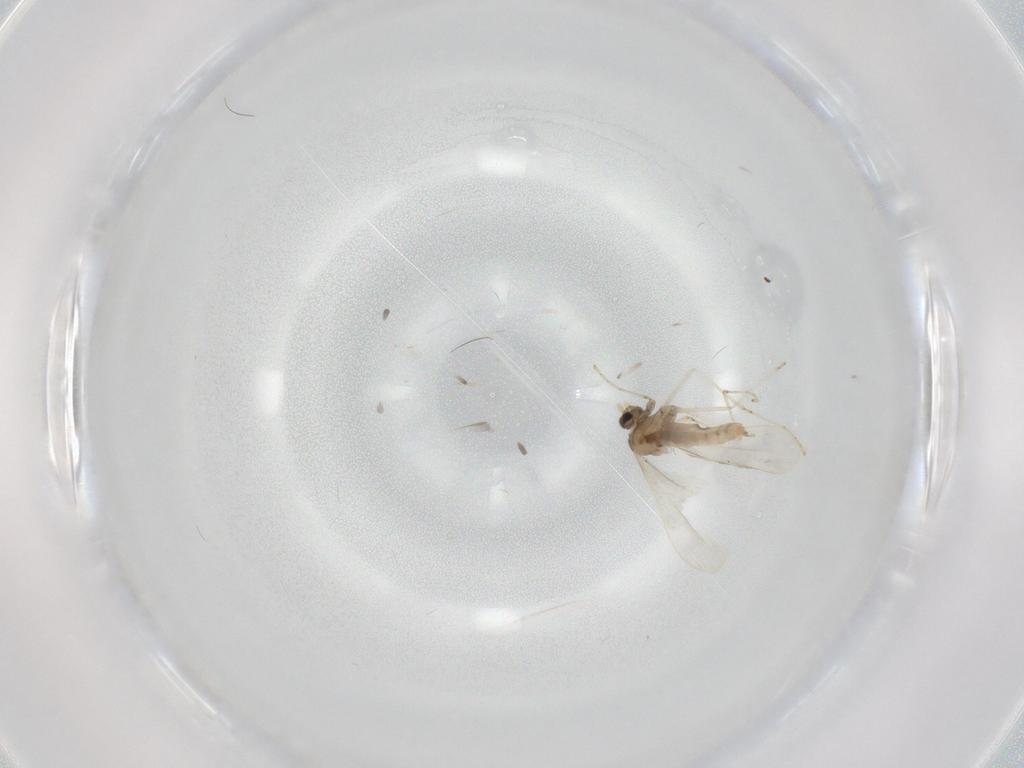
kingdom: Animalia
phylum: Arthropoda
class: Insecta
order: Diptera
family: Cecidomyiidae
